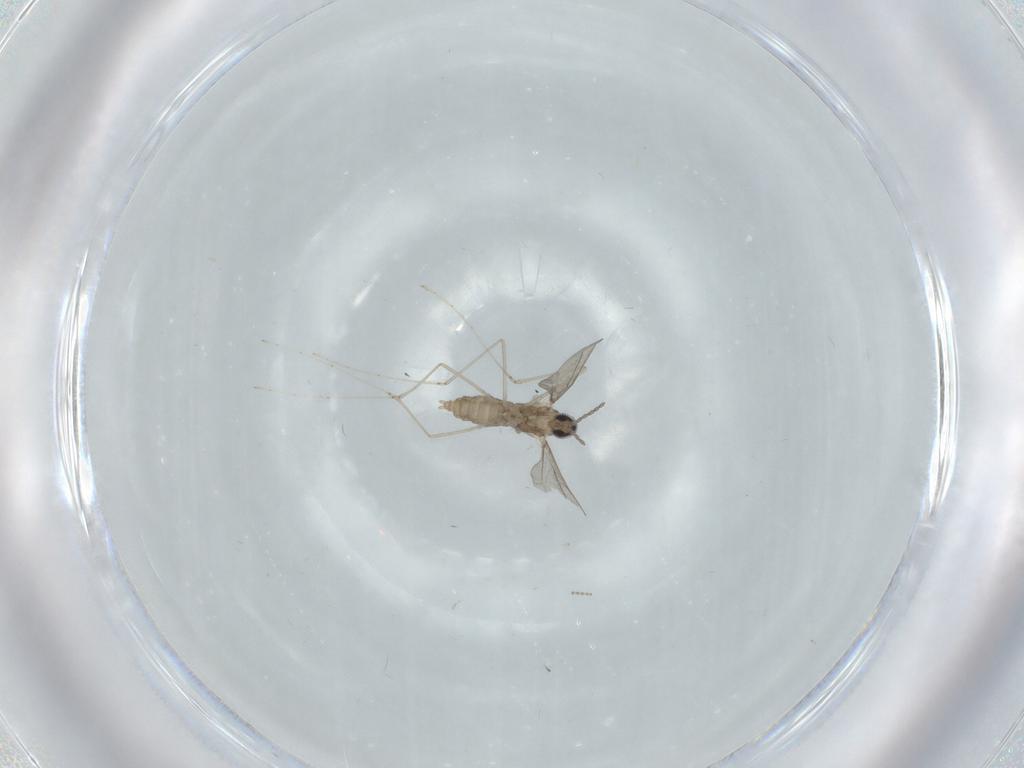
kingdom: Animalia
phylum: Arthropoda
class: Insecta
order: Diptera
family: Cecidomyiidae
